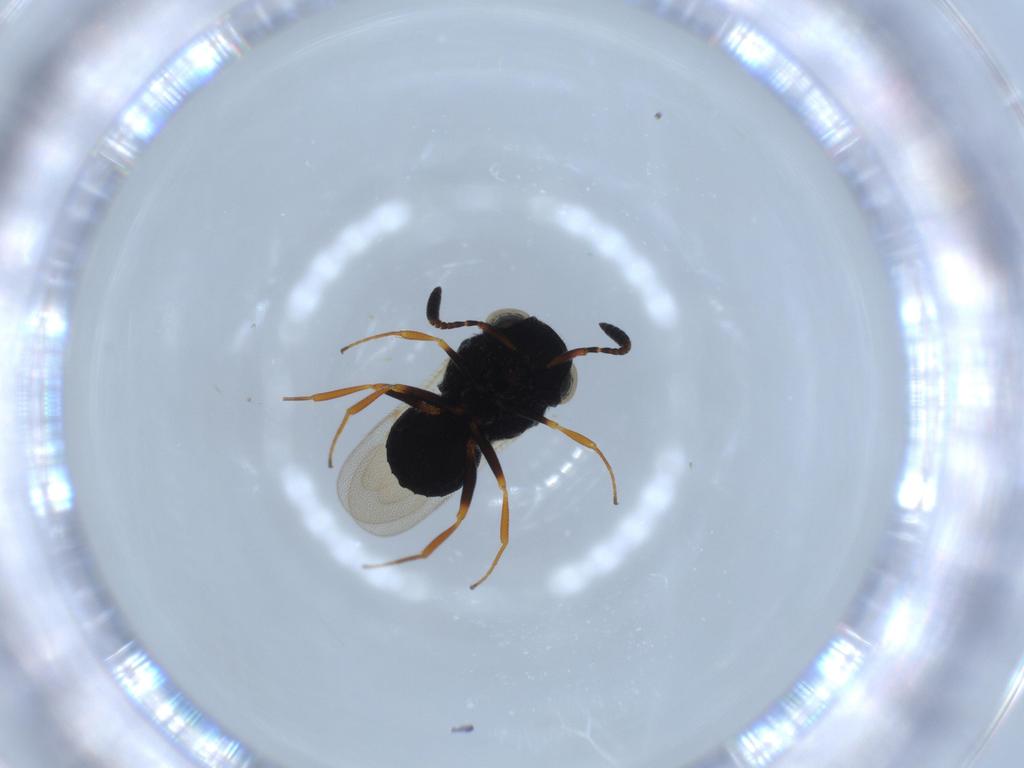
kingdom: Animalia
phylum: Arthropoda
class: Insecta
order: Hymenoptera
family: Scelionidae
